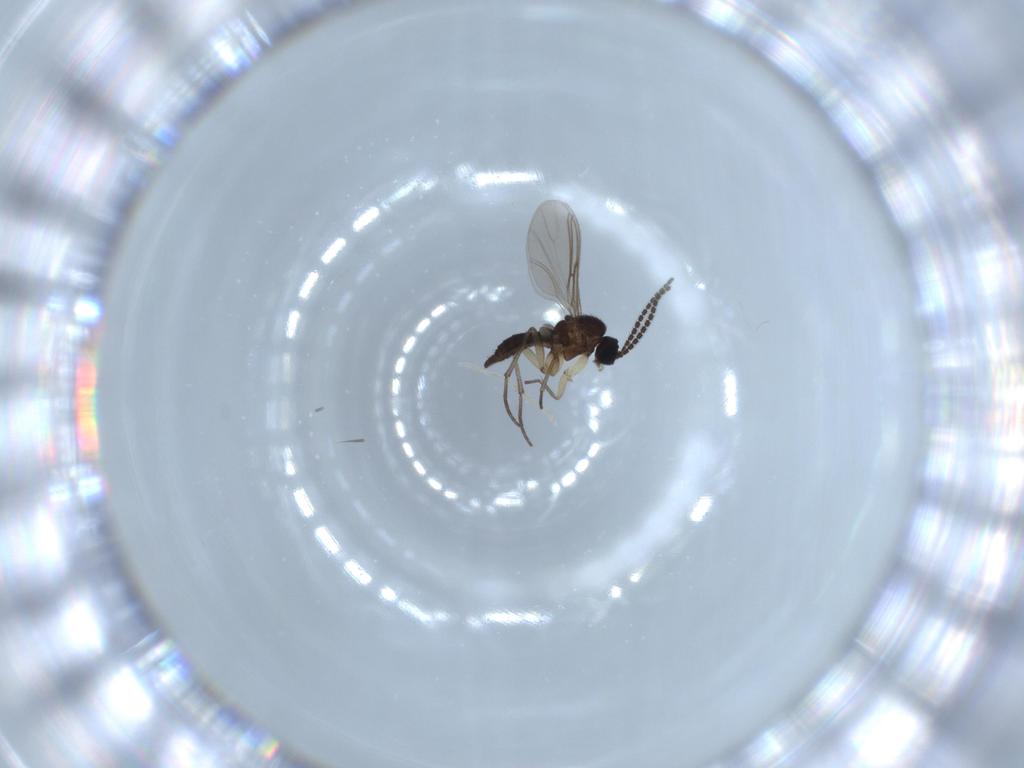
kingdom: Animalia
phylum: Arthropoda
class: Insecta
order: Diptera
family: Sciaridae
